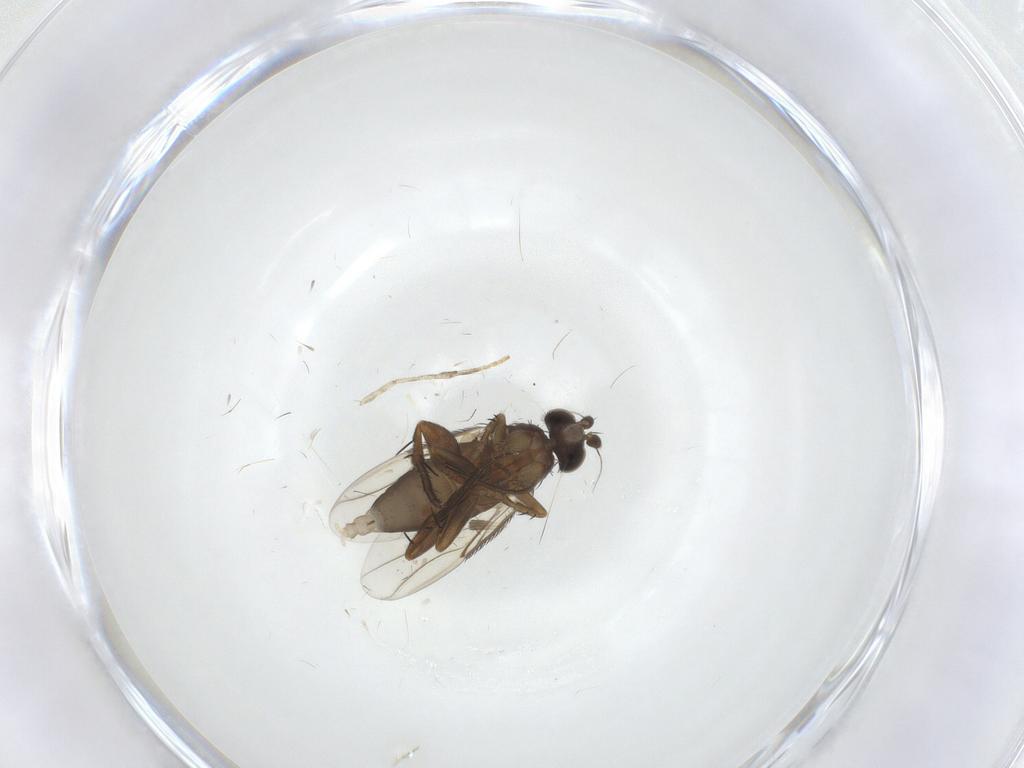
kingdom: Animalia
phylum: Arthropoda
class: Insecta
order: Diptera
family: Phoridae
